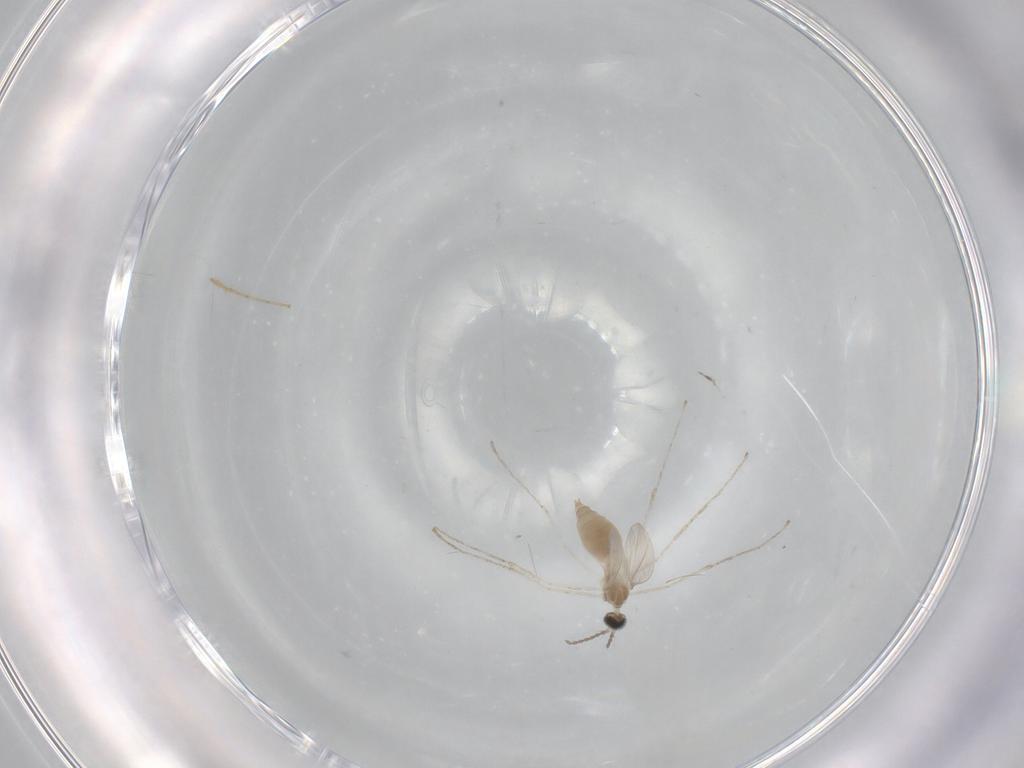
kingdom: Animalia
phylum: Arthropoda
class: Insecta
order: Diptera
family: Cecidomyiidae
